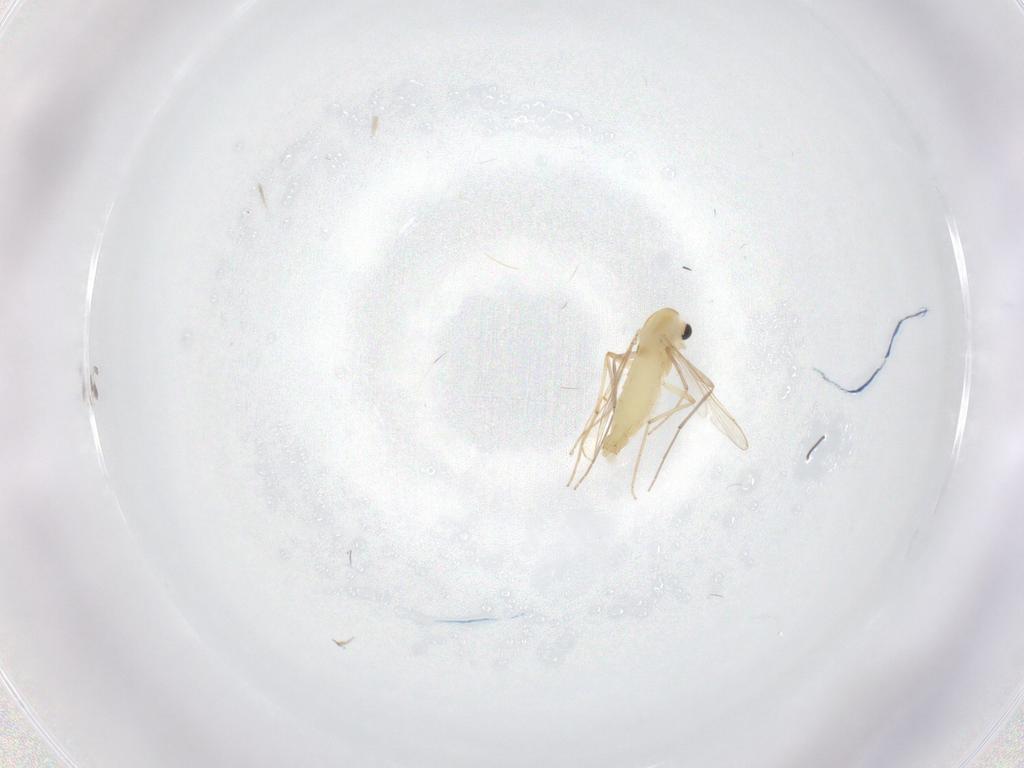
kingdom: Animalia
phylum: Arthropoda
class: Insecta
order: Diptera
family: Chironomidae
